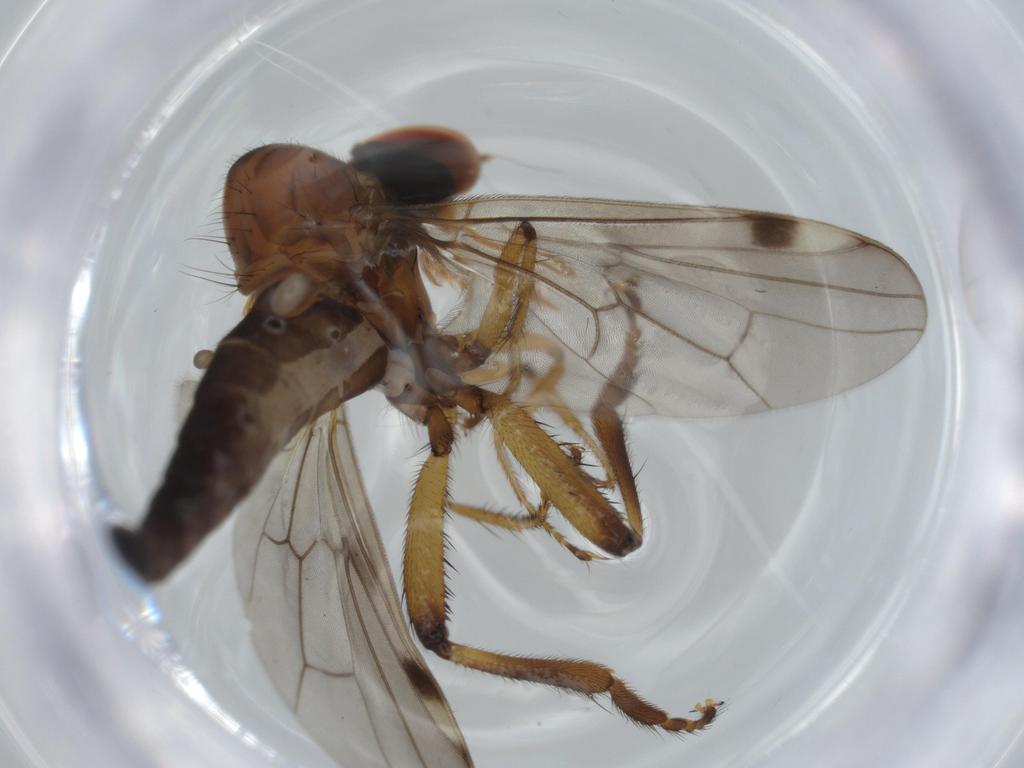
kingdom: Animalia
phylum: Arthropoda
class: Insecta
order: Diptera
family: Hybotidae
